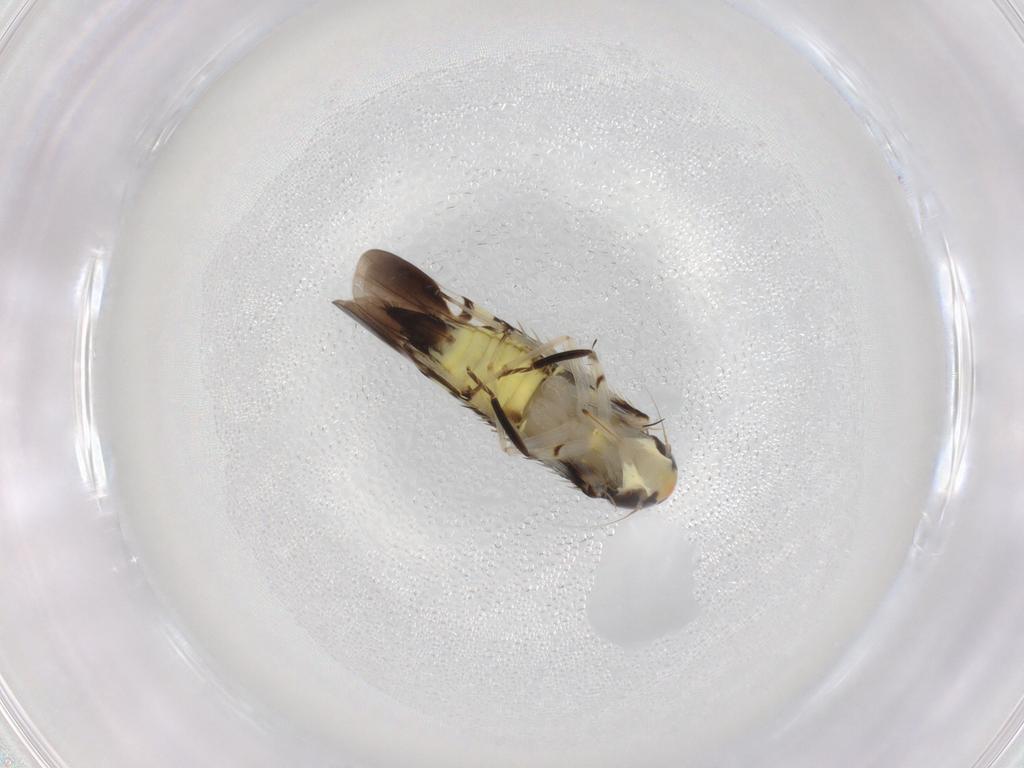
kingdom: Animalia
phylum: Arthropoda
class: Insecta
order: Hemiptera
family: Cicadellidae
